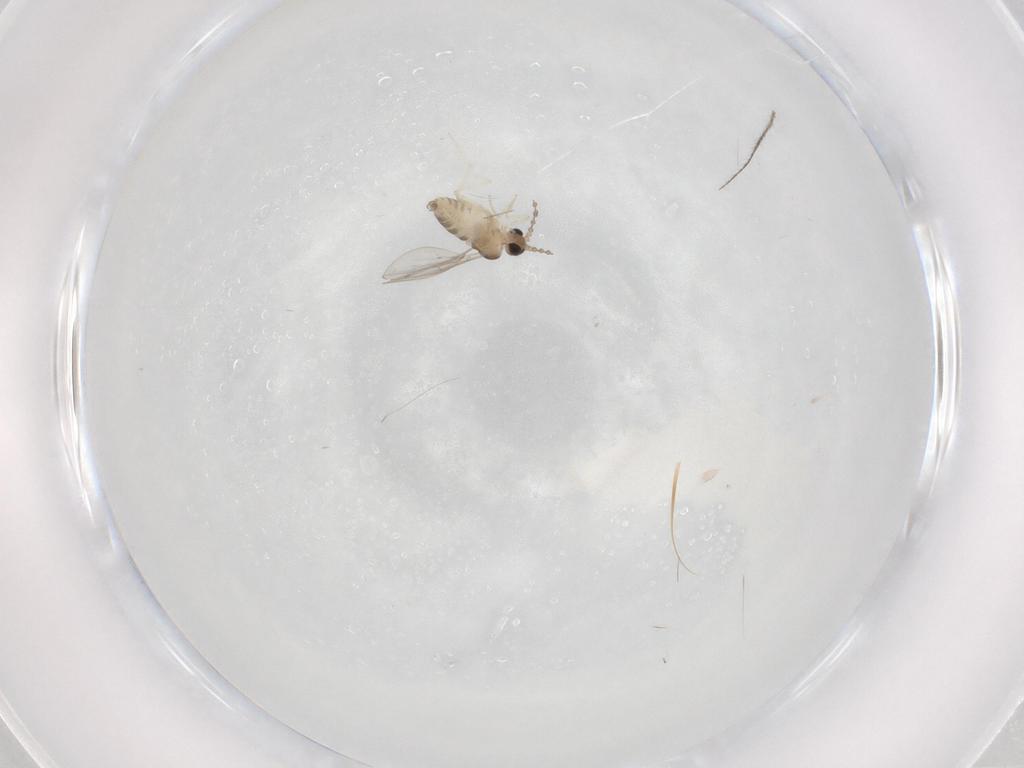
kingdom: Animalia
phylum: Arthropoda
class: Insecta
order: Diptera
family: Cecidomyiidae
